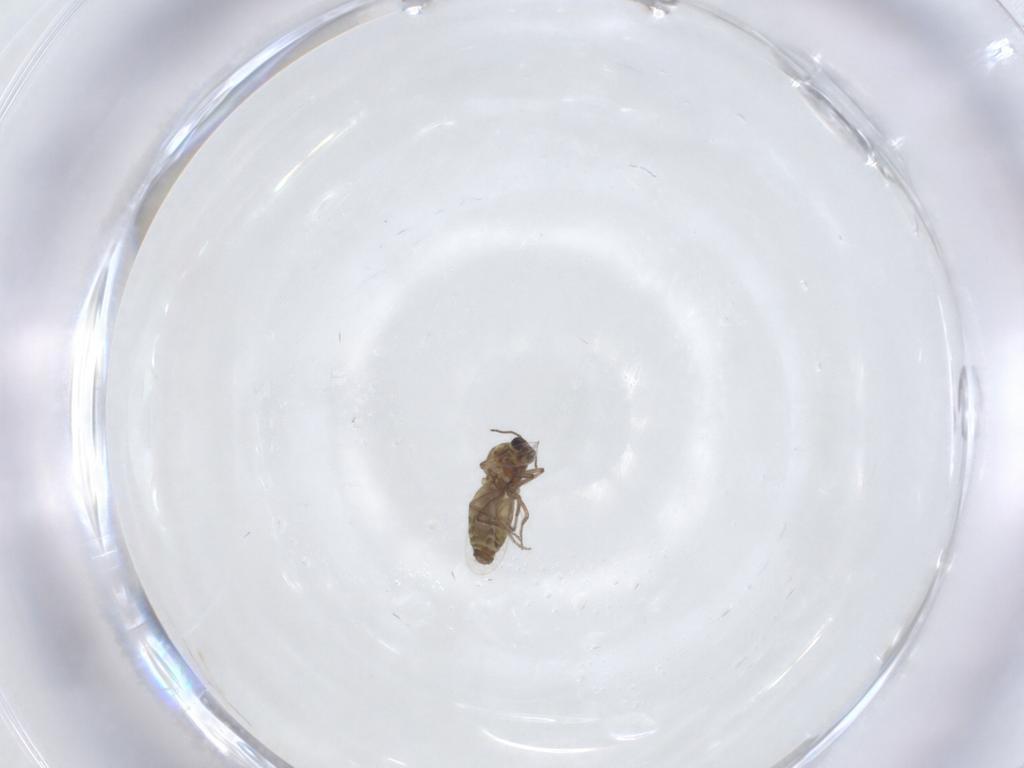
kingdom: Animalia
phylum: Arthropoda
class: Insecta
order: Diptera
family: Ceratopogonidae
